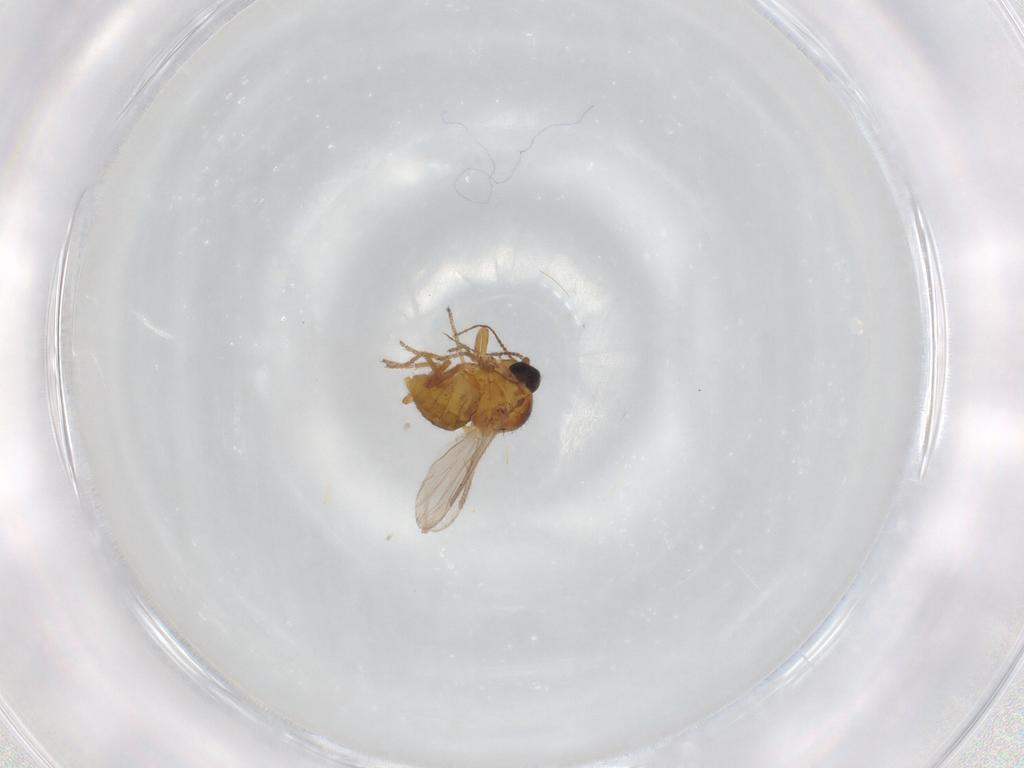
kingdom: Animalia
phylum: Arthropoda
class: Insecta
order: Diptera
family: Ceratopogonidae
